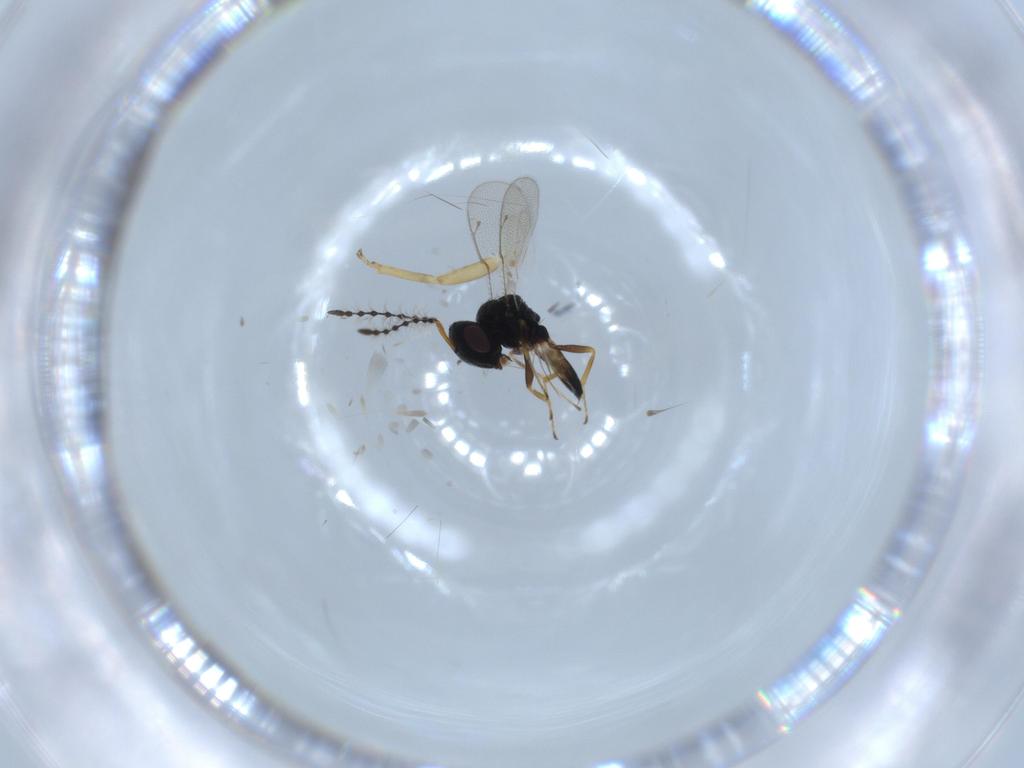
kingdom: Animalia
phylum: Arthropoda
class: Insecta
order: Hymenoptera
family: Pteromalidae
